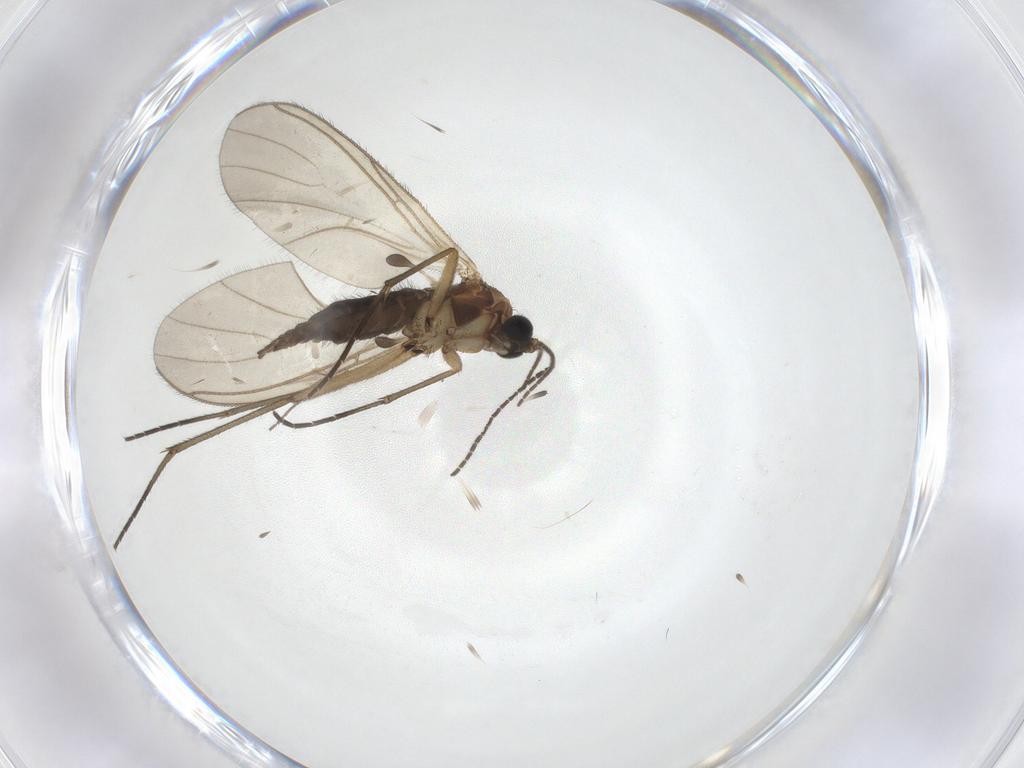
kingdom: Animalia
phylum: Arthropoda
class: Insecta
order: Diptera
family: Sciaridae
